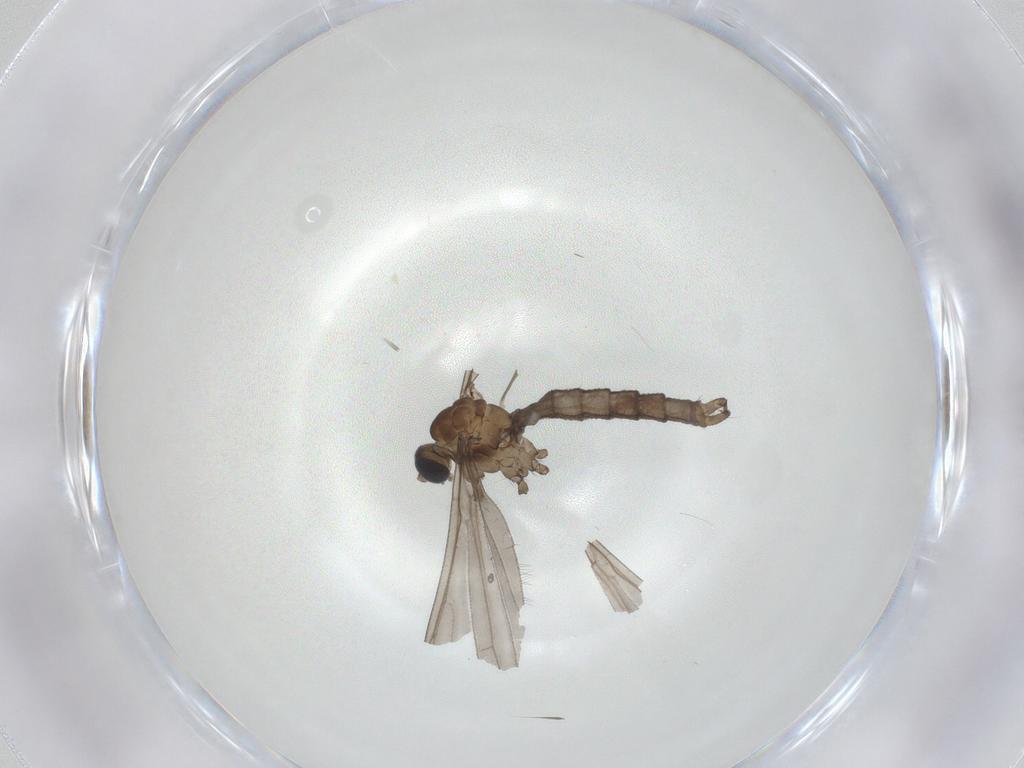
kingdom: Animalia
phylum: Arthropoda
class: Insecta
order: Diptera
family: Limoniidae
